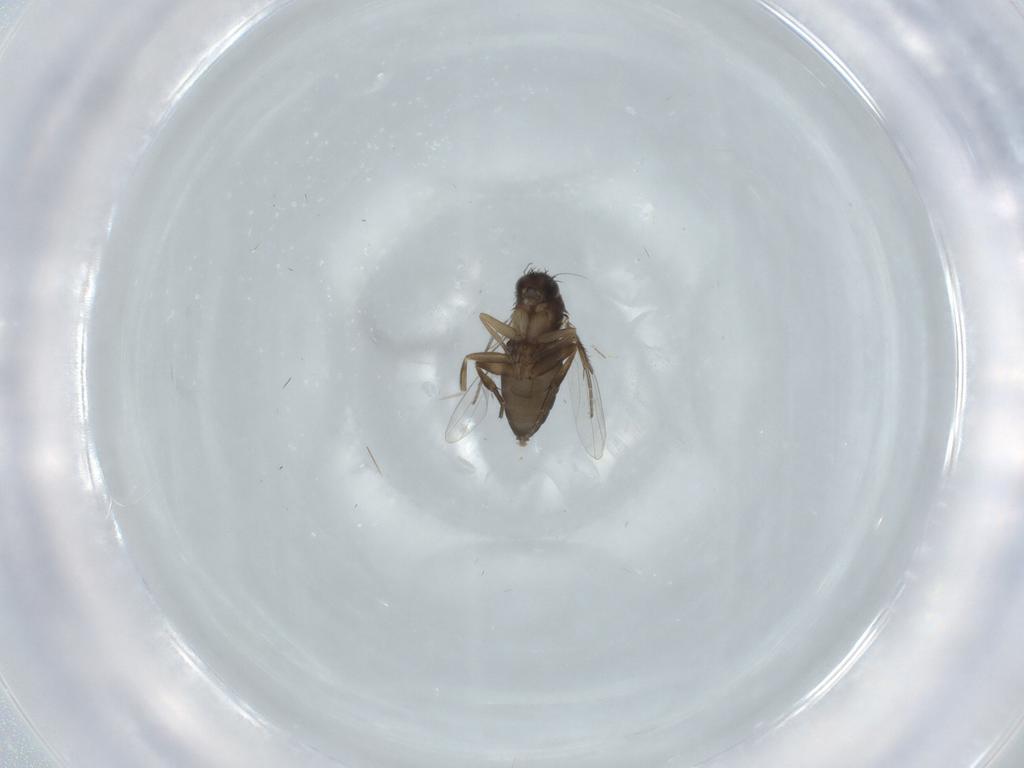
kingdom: Animalia
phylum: Arthropoda
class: Insecta
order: Diptera
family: Phoridae
